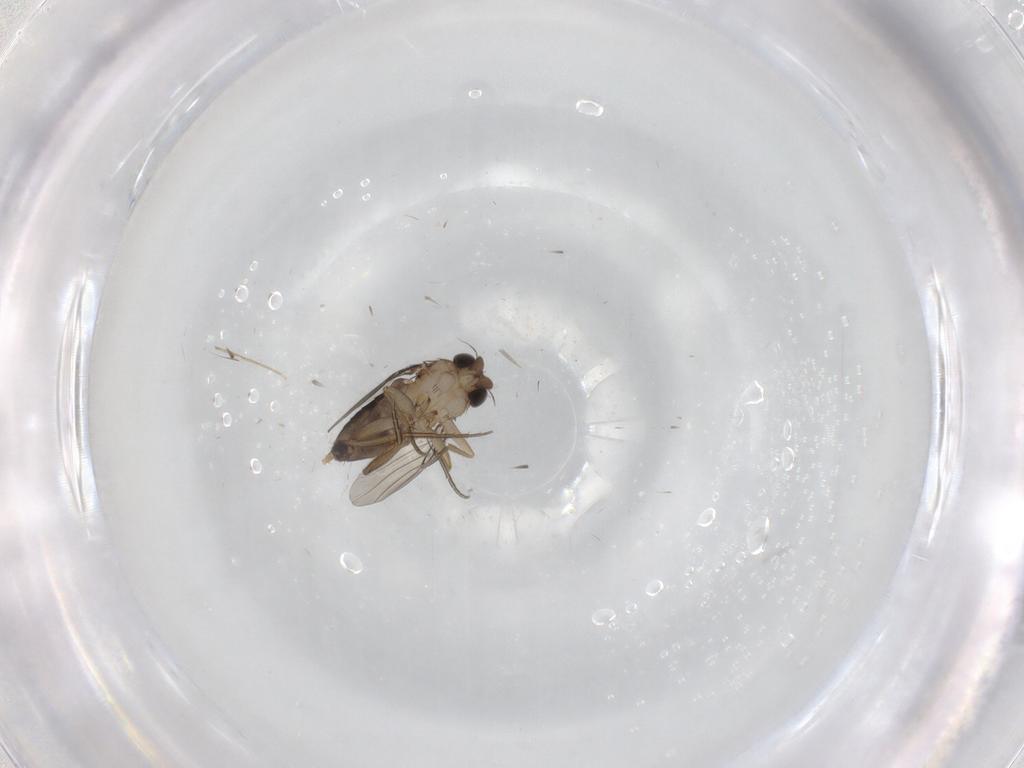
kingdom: Animalia
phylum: Arthropoda
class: Insecta
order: Diptera
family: Phoridae
